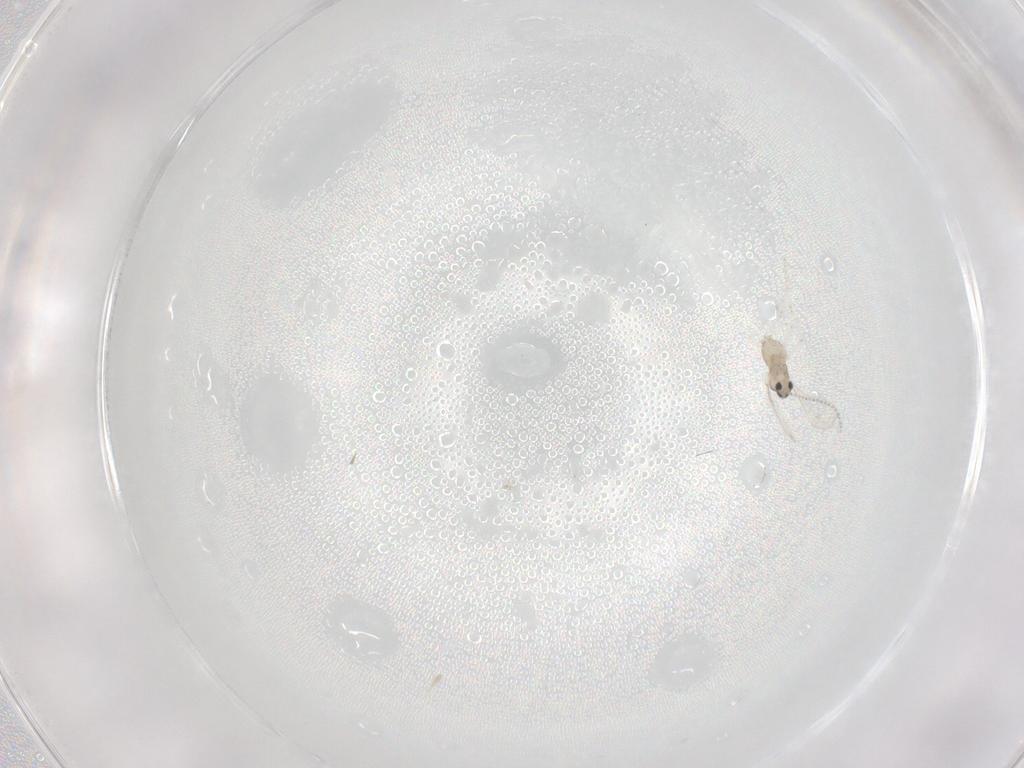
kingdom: Animalia
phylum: Arthropoda
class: Insecta
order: Diptera
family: Cecidomyiidae
